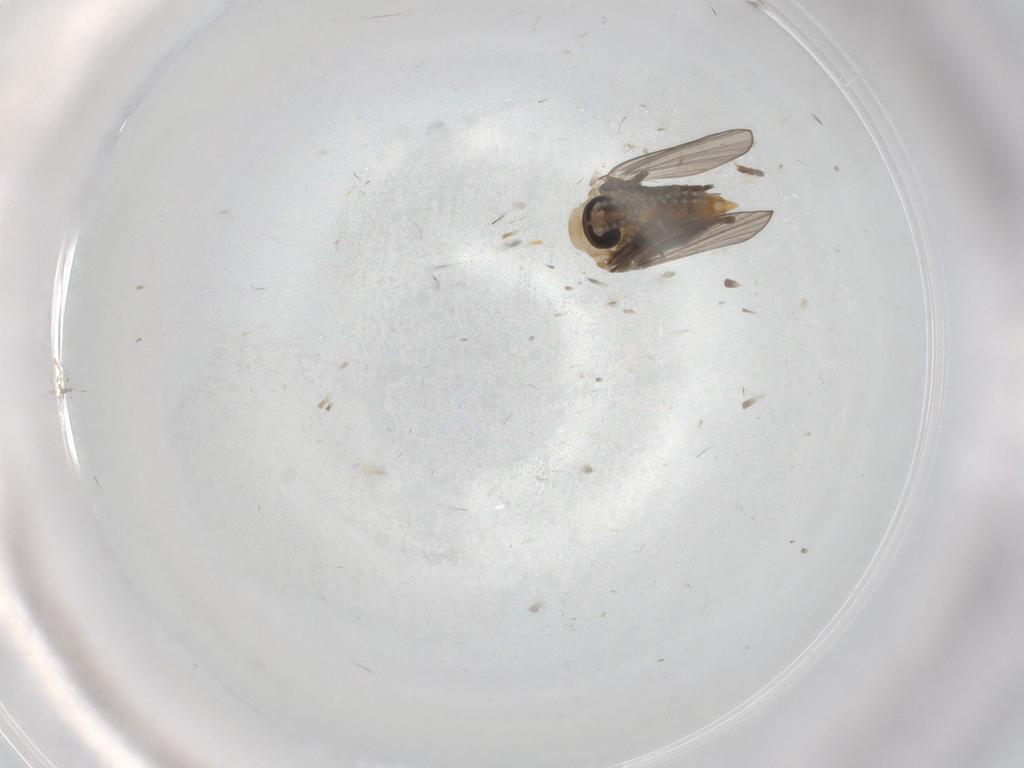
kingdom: Animalia
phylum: Arthropoda
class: Insecta
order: Diptera
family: Psychodidae
